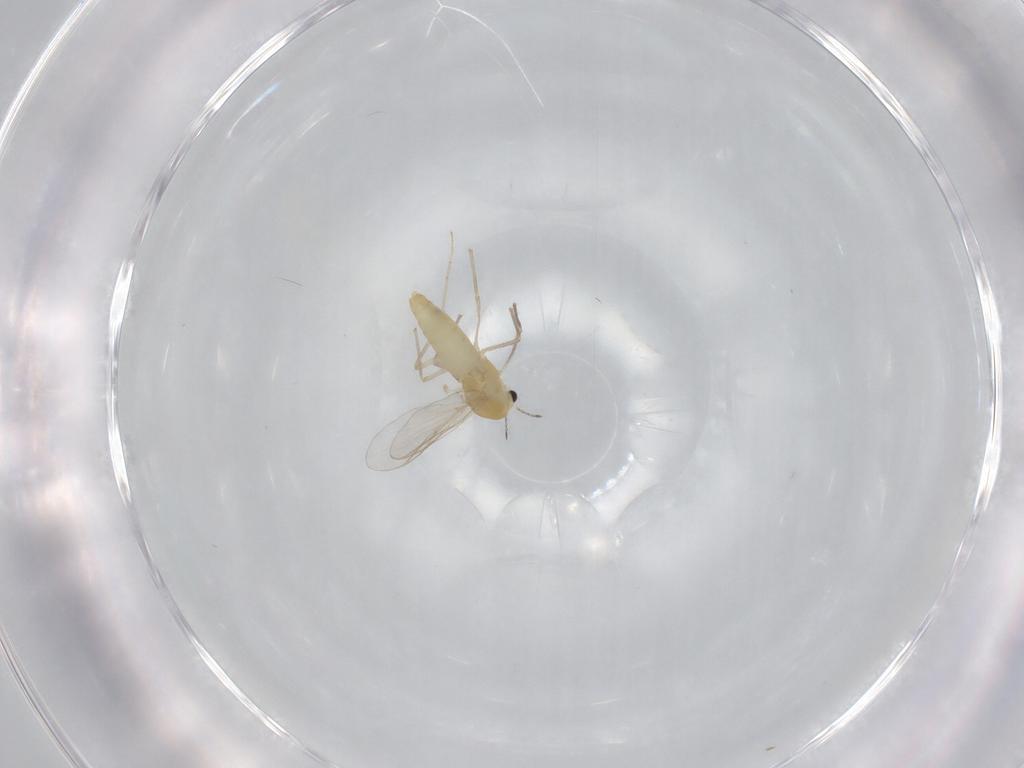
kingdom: Animalia
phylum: Arthropoda
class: Insecta
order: Diptera
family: Chironomidae
